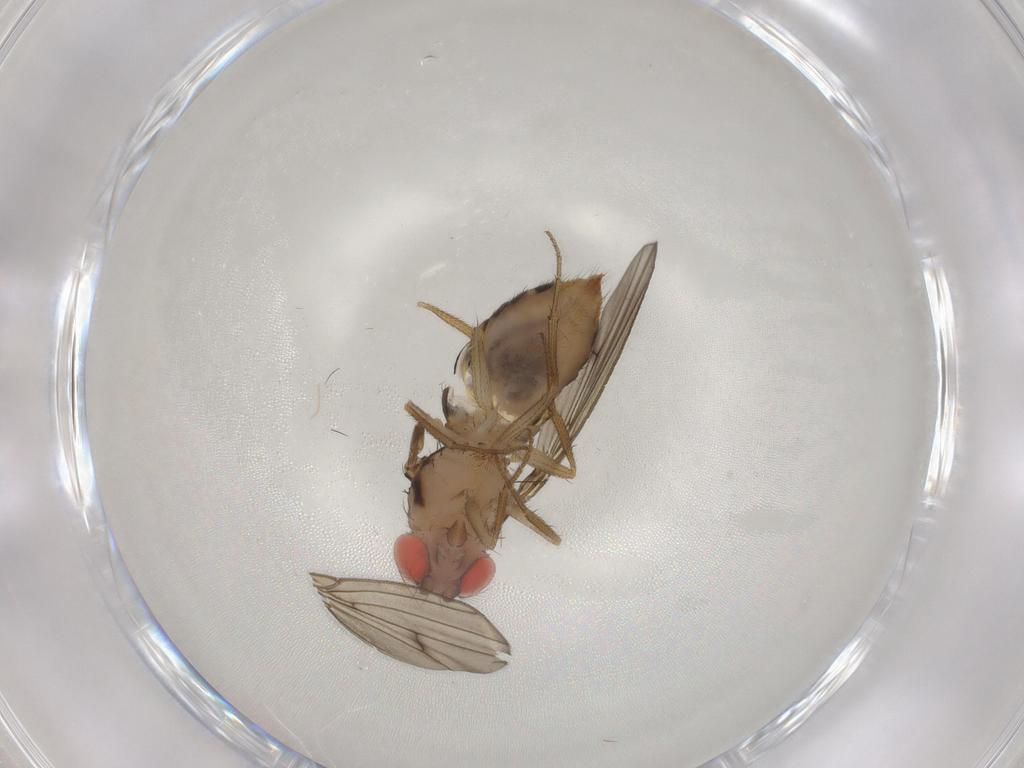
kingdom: Animalia
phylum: Arthropoda
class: Insecta
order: Diptera
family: Drosophilidae
